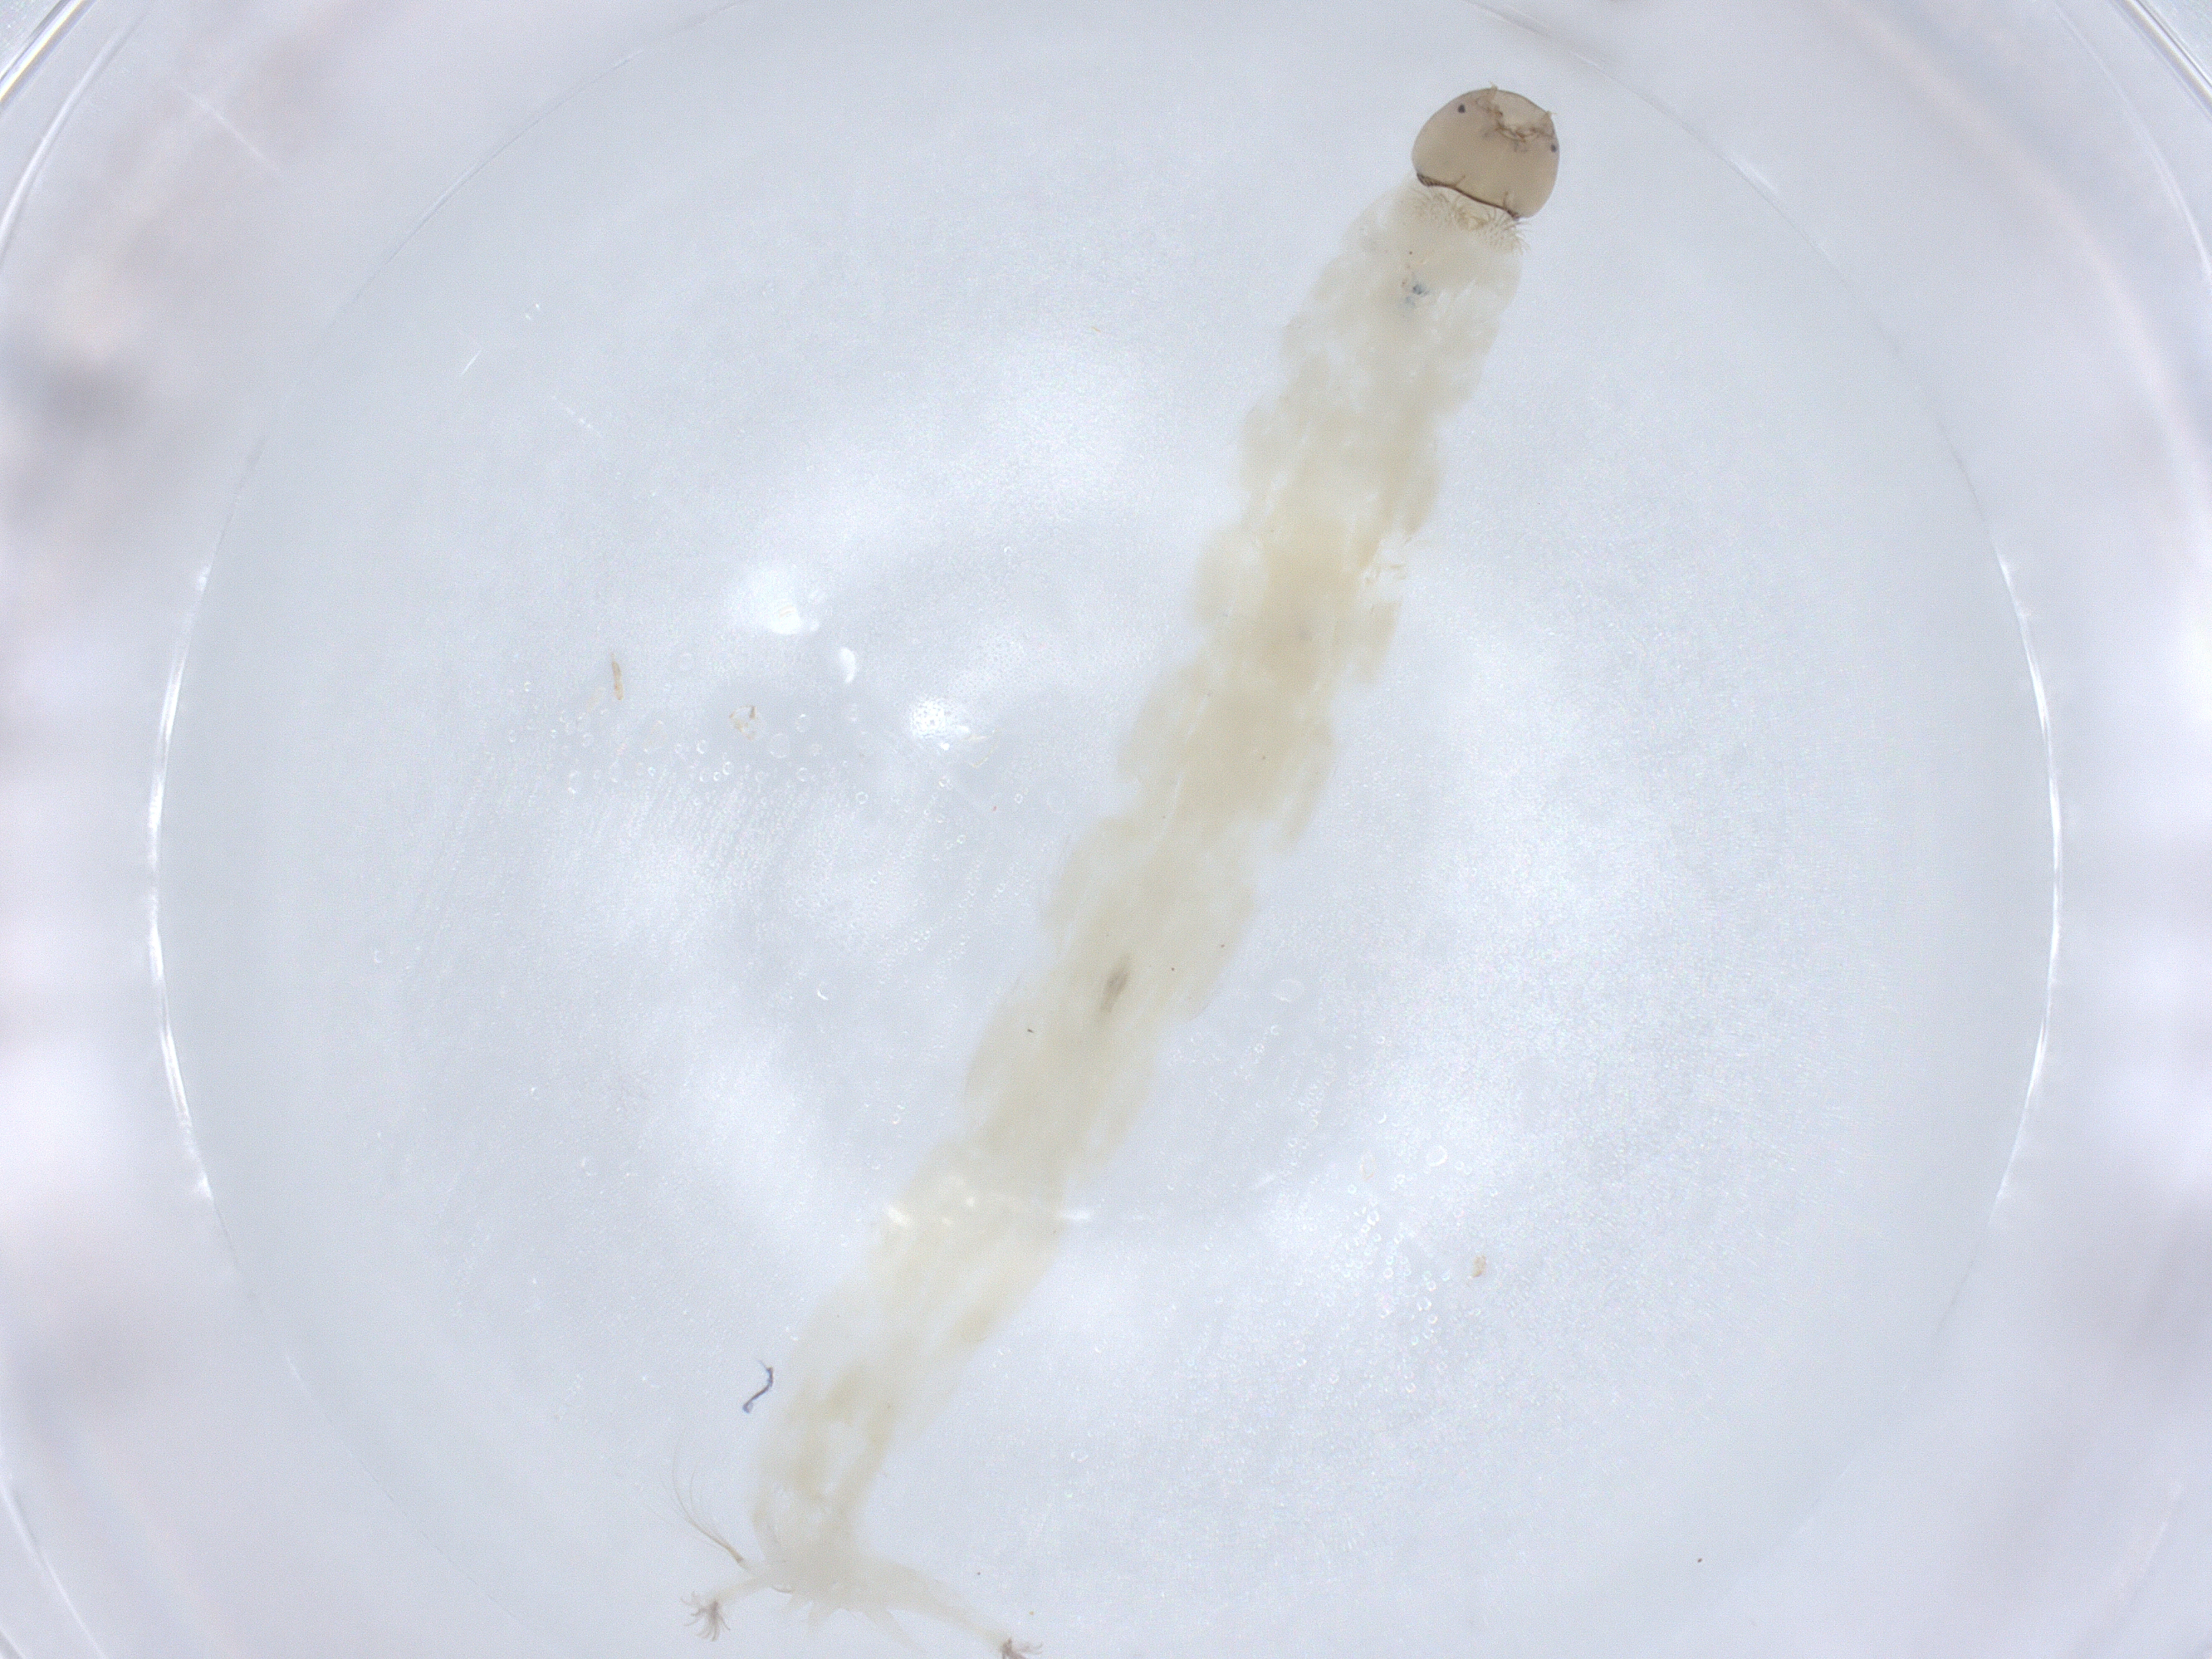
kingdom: Animalia
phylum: Arthropoda
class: Insecta
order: Diptera
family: Chironomidae
